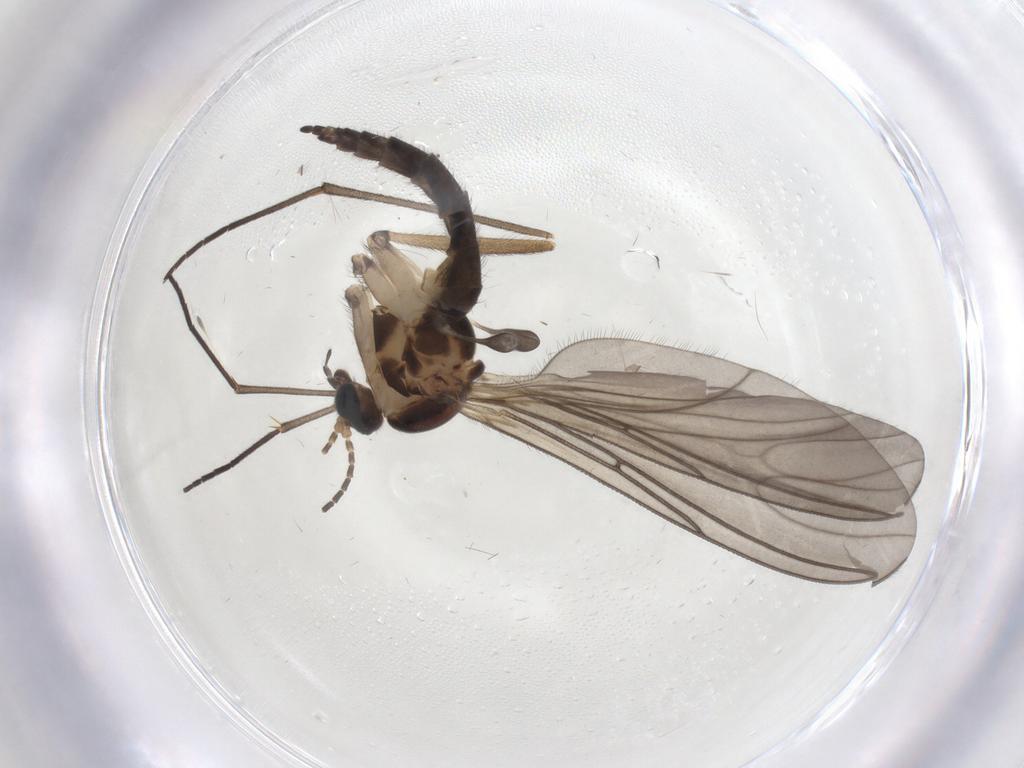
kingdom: Animalia
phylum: Arthropoda
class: Insecta
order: Diptera
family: Sciaridae
